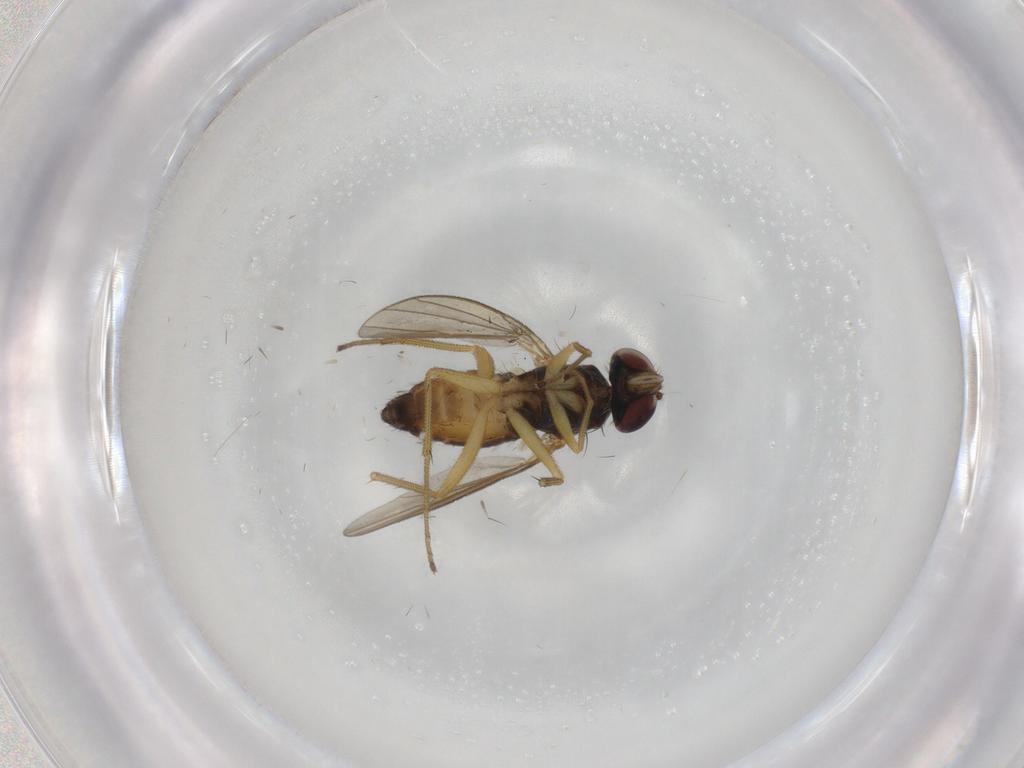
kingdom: Animalia
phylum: Arthropoda
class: Insecta
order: Diptera
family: Dolichopodidae
